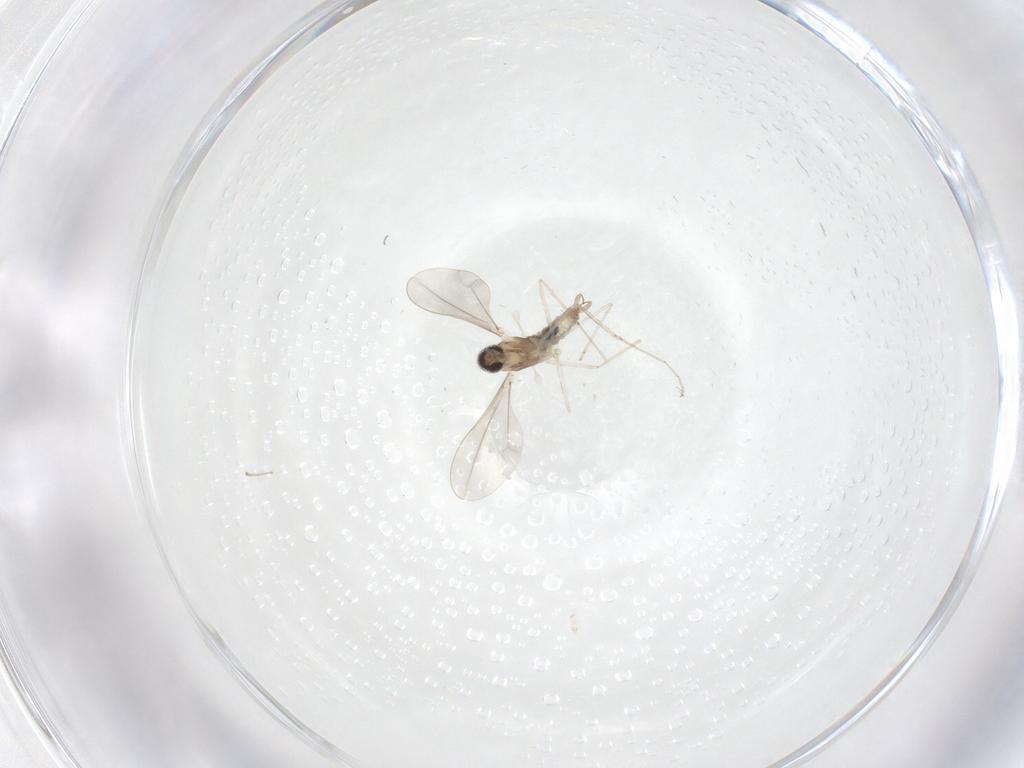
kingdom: Animalia
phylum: Arthropoda
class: Insecta
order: Diptera
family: Cecidomyiidae
